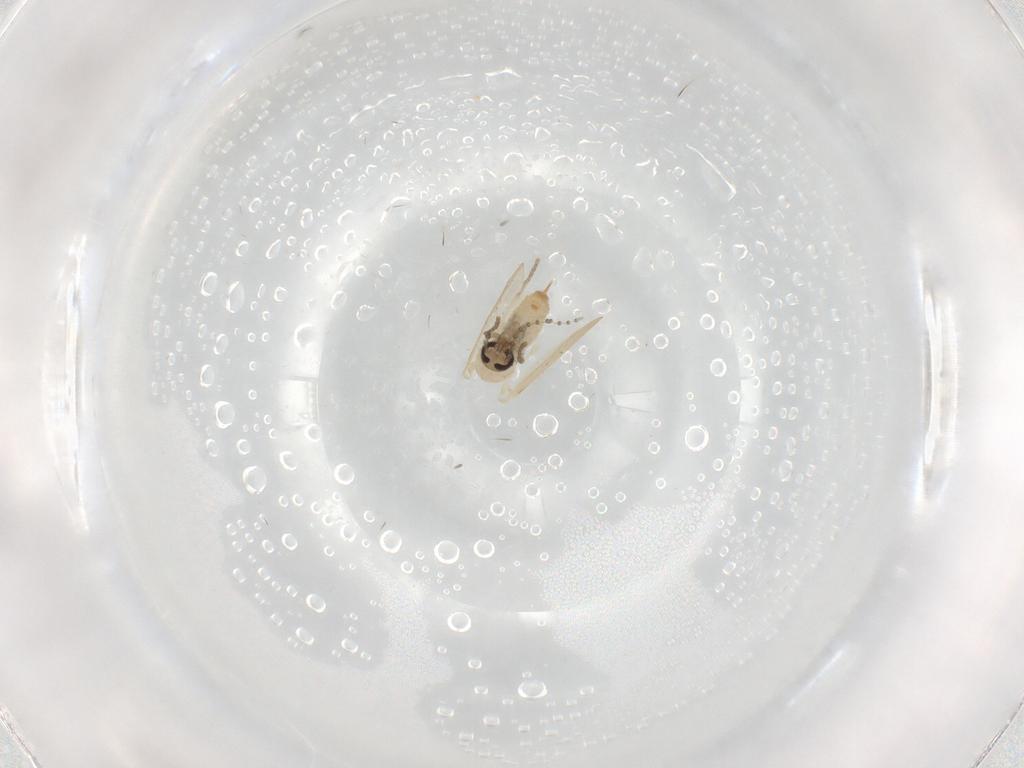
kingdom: Animalia
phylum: Arthropoda
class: Insecta
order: Diptera
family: Psychodidae
